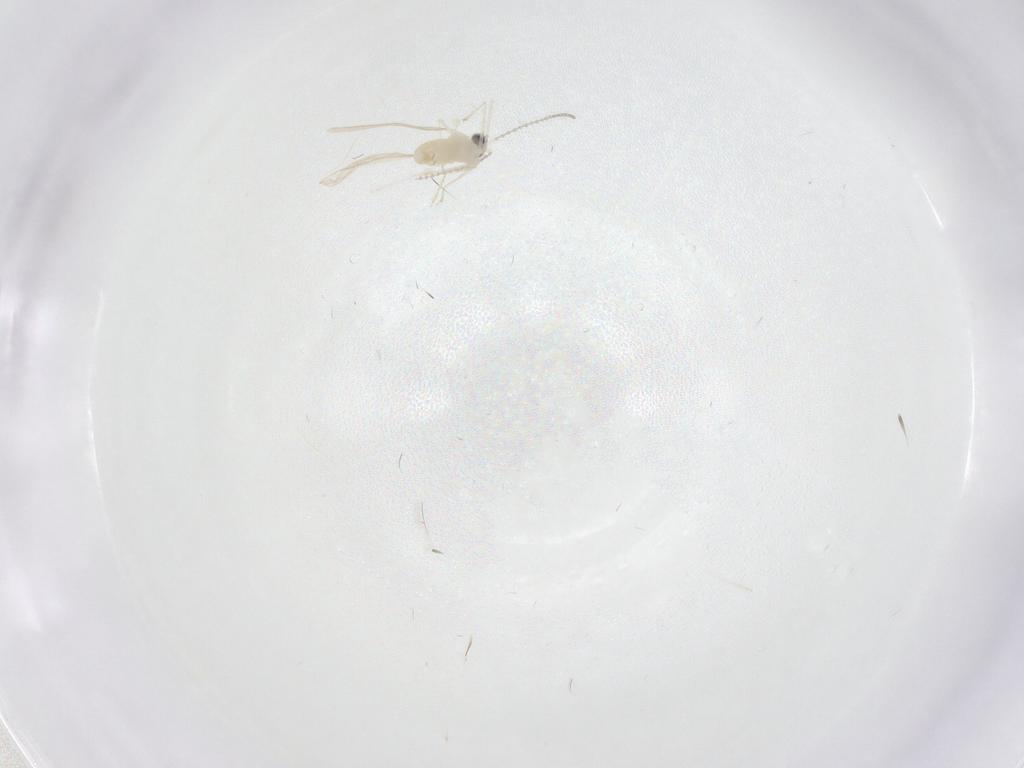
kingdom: Animalia
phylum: Arthropoda
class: Insecta
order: Diptera
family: Cecidomyiidae
